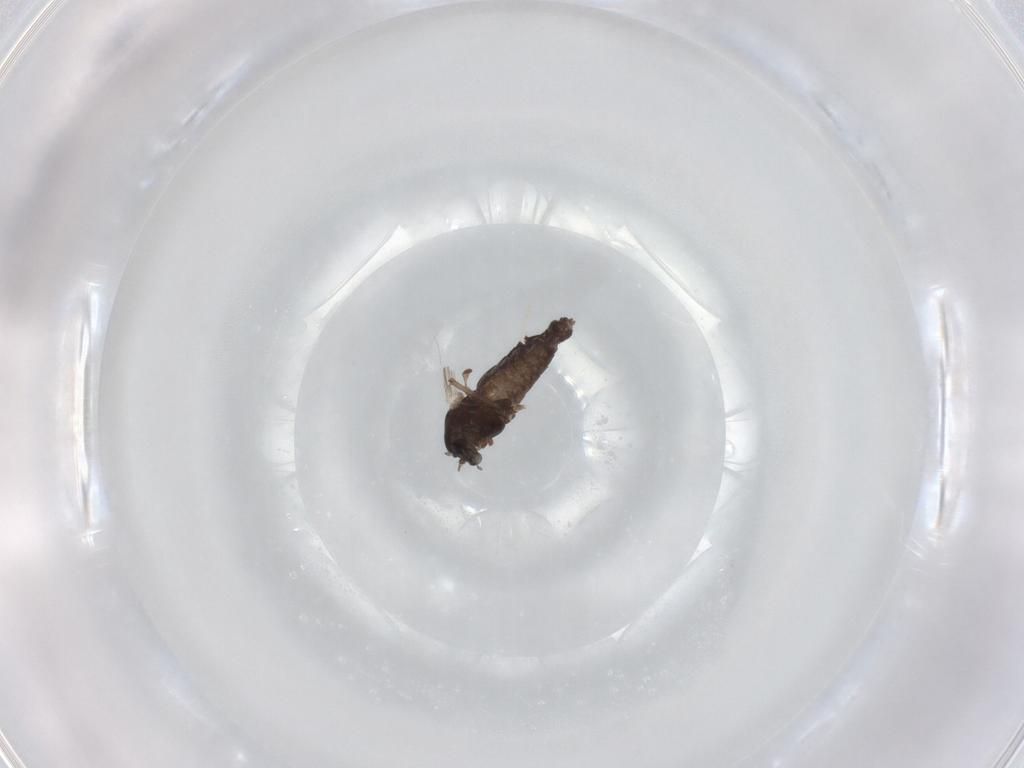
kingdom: Animalia
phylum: Arthropoda
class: Insecta
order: Diptera
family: Chironomidae
